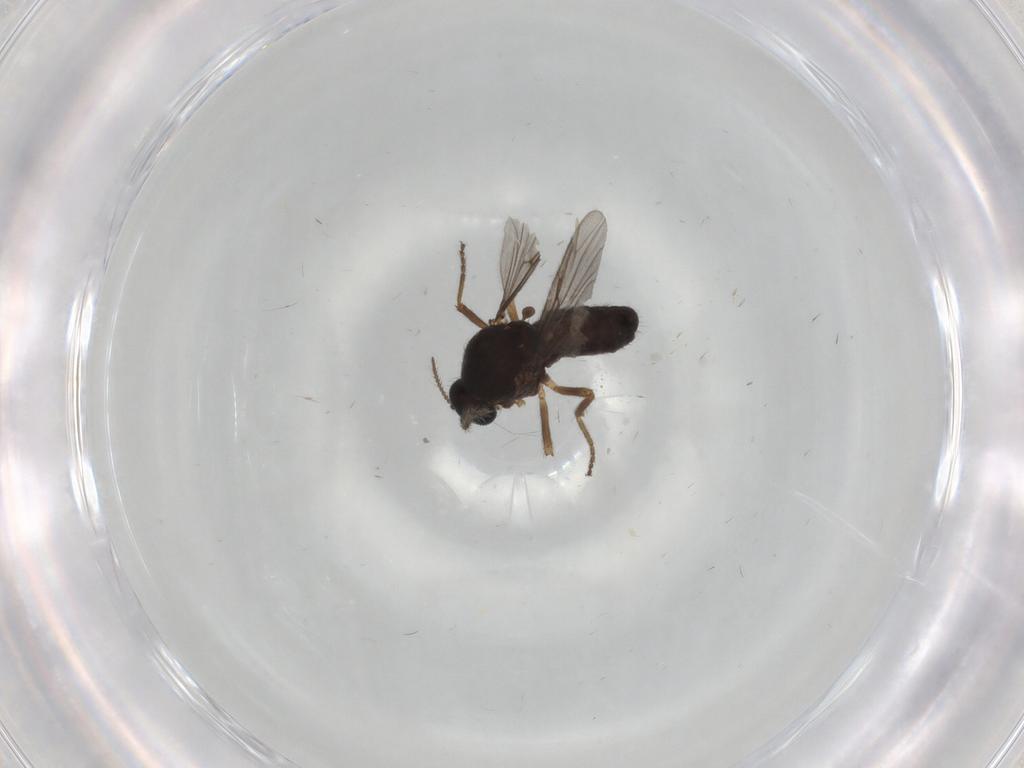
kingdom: Animalia
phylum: Arthropoda
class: Insecta
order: Diptera
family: Ceratopogonidae
